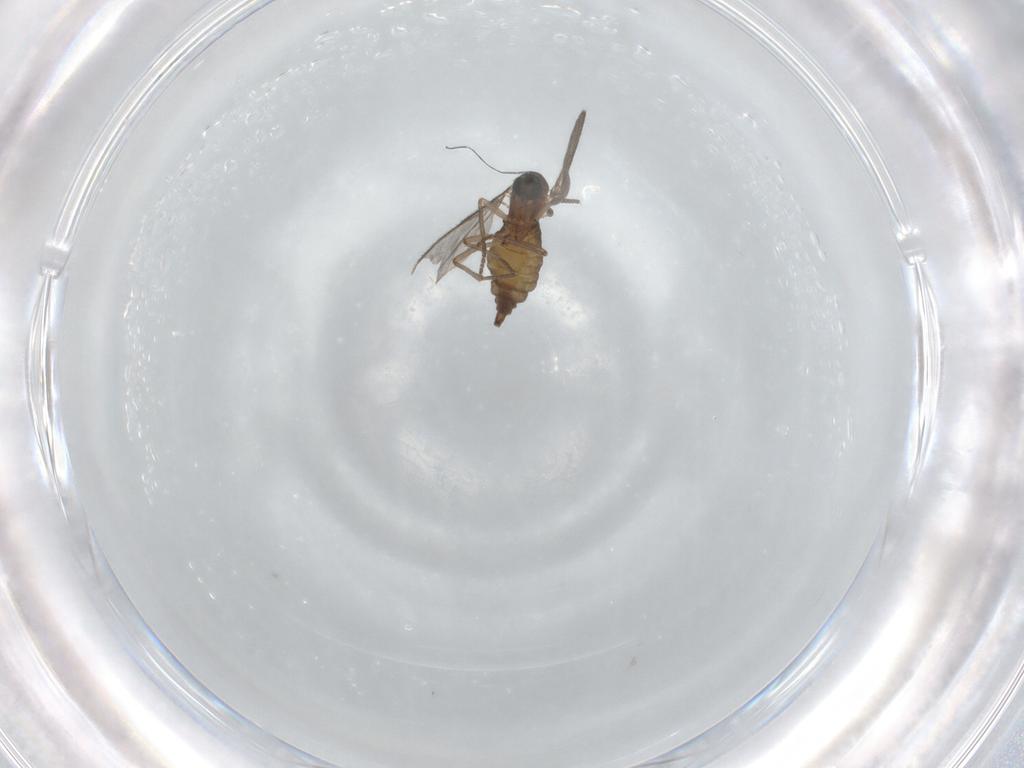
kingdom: Animalia
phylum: Arthropoda
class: Insecta
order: Diptera
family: Sciaridae
